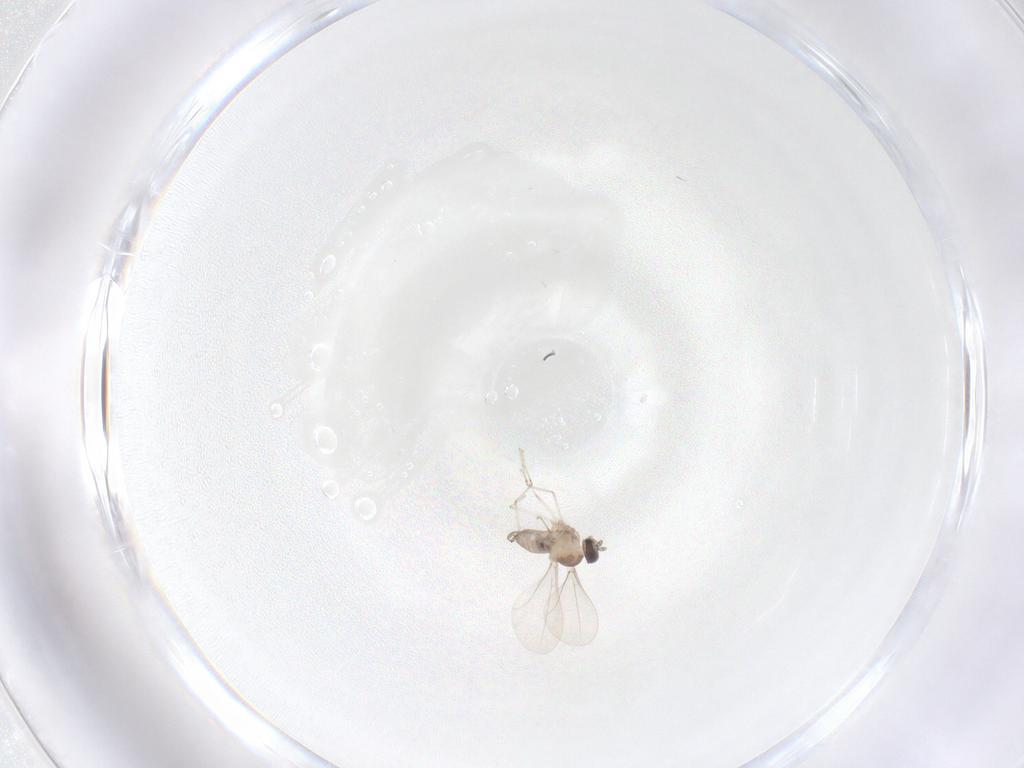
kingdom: Animalia
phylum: Arthropoda
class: Insecta
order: Diptera
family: Cecidomyiidae
